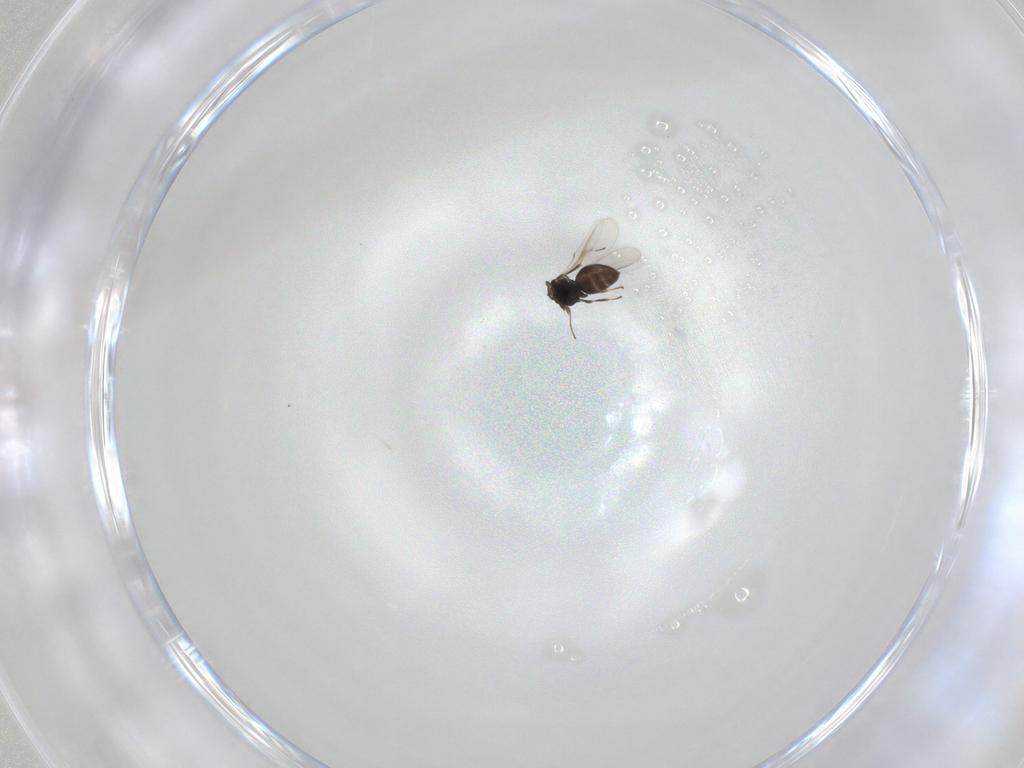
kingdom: Animalia
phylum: Arthropoda
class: Insecta
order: Hymenoptera
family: Scelionidae
